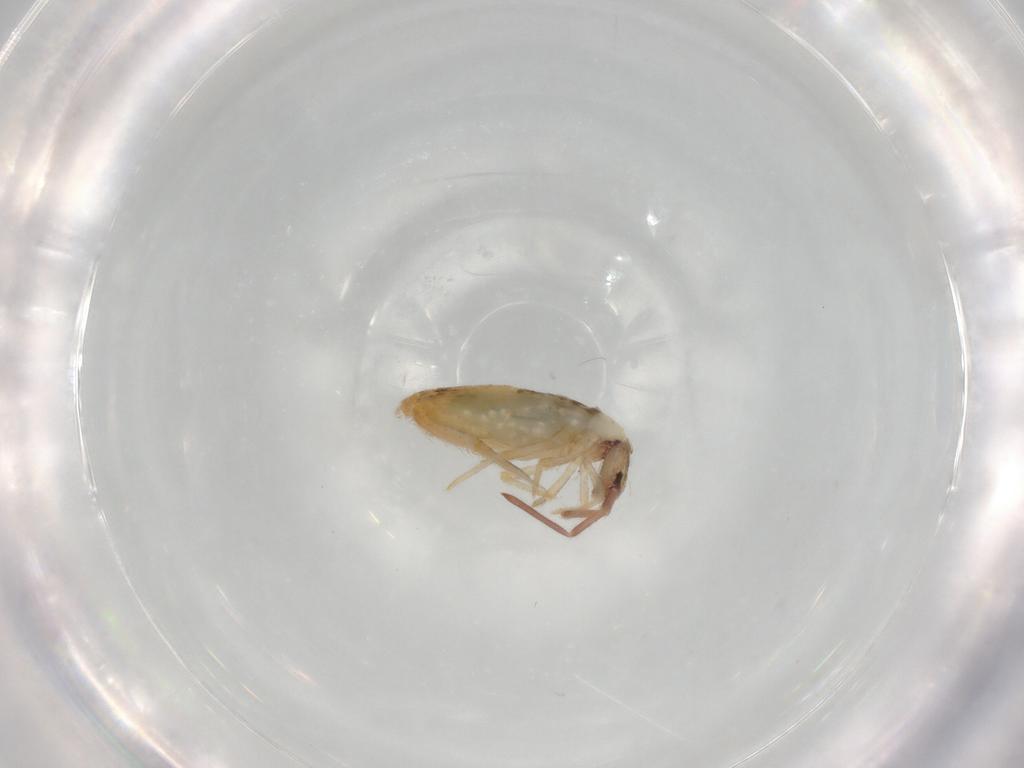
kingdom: Animalia
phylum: Arthropoda
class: Collembola
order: Entomobryomorpha
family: Entomobryidae
